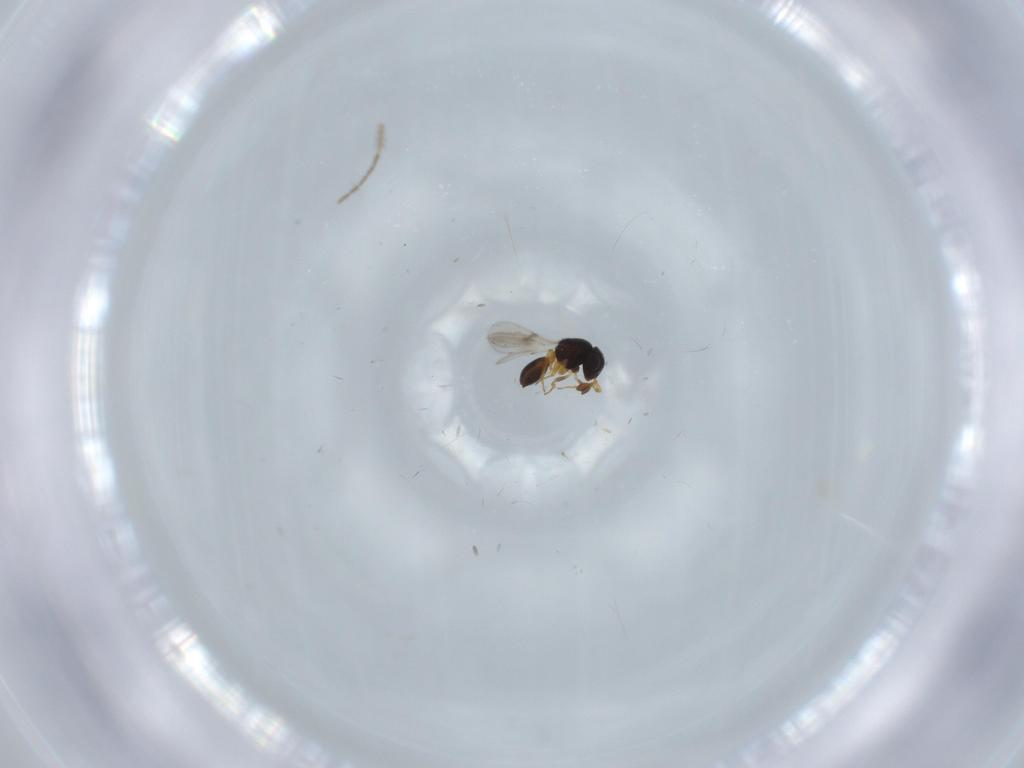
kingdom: Animalia
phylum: Arthropoda
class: Insecta
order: Hymenoptera
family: Scelionidae
